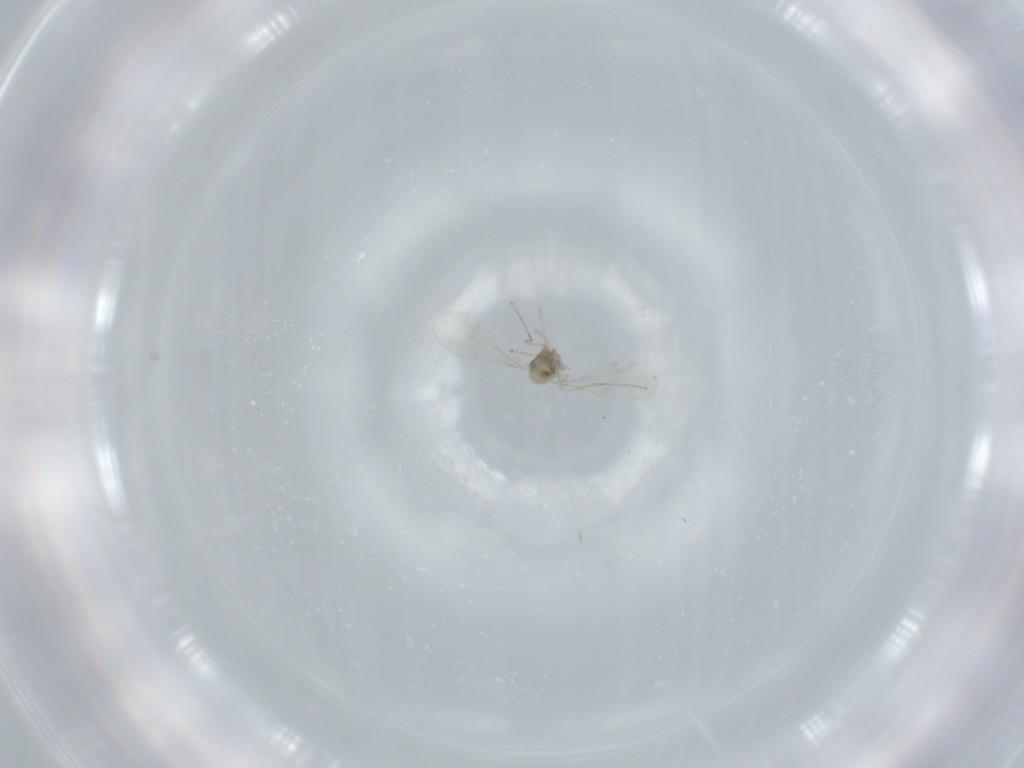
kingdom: Animalia
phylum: Arthropoda
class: Insecta
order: Diptera
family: Cecidomyiidae
